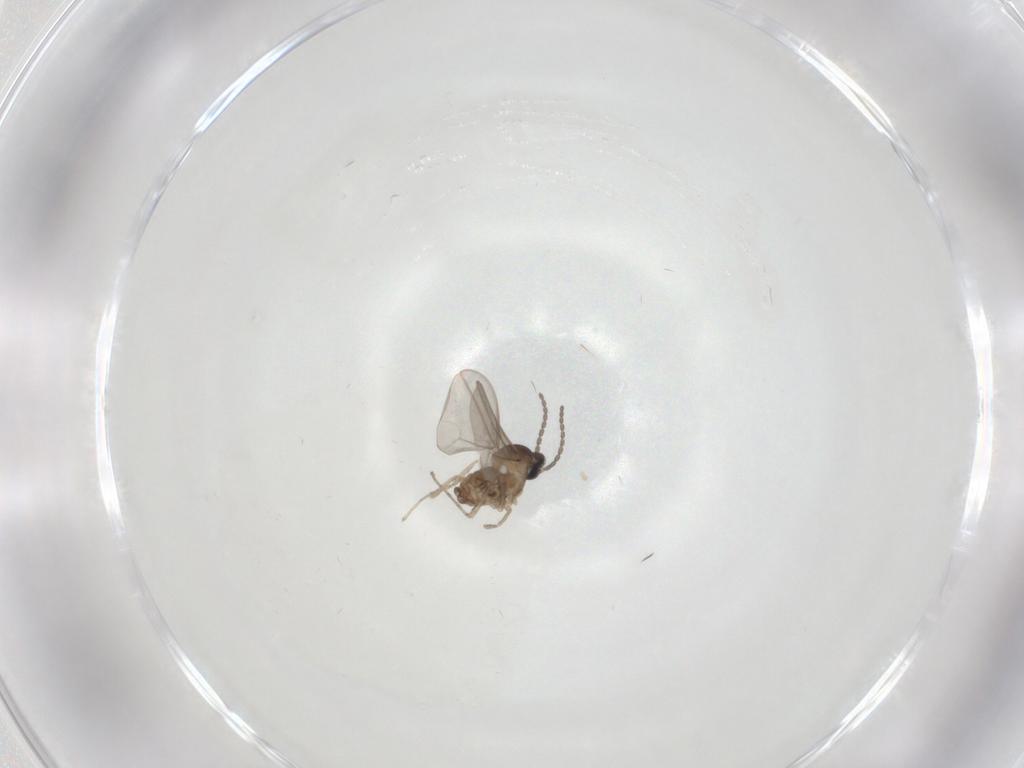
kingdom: Animalia
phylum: Arthropoda
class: Insecta
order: Diptera
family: Cecidomyiidae
